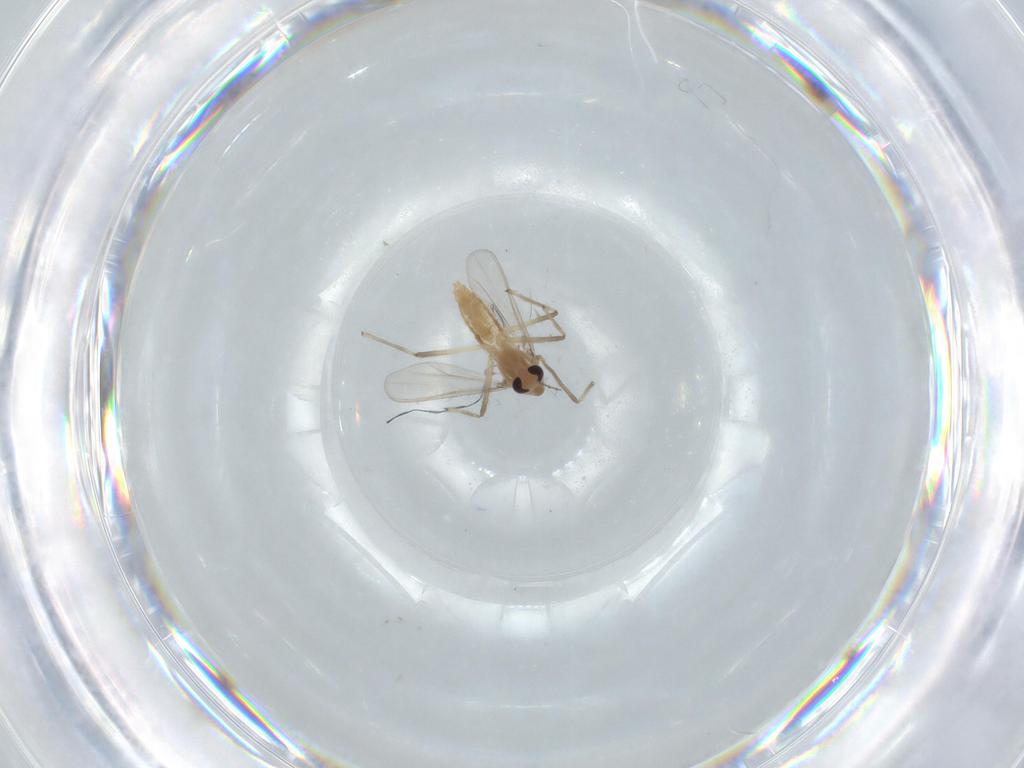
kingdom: Animalia
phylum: Arthropoda
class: Insecta
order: Diptera
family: Chironomidae
